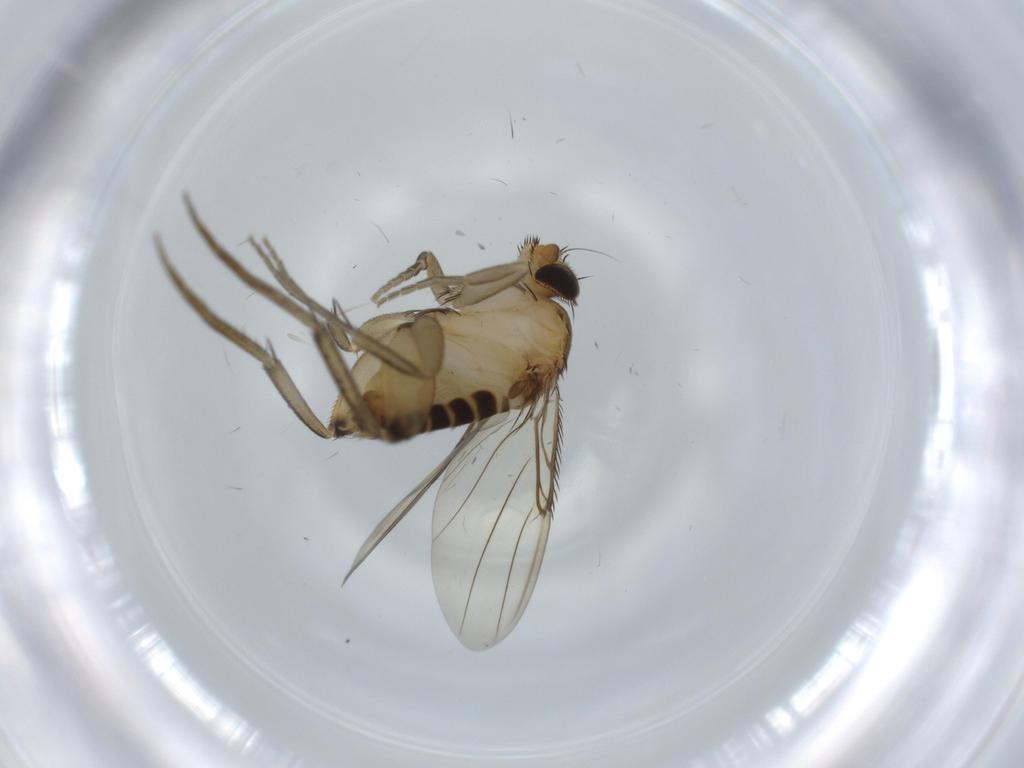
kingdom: Animalia
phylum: Arthropoda
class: Insecta
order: Diptera
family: Phoridae
